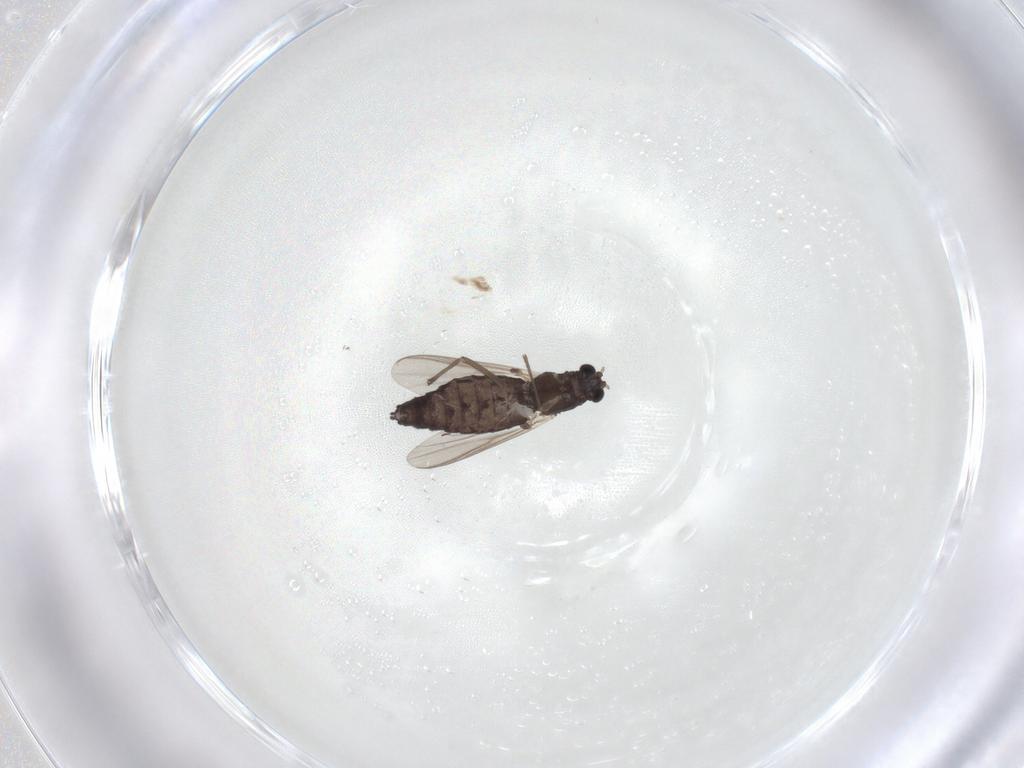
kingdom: Animalia
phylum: Arthropoda
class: Insecta
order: Diptera
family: Chironomidae
